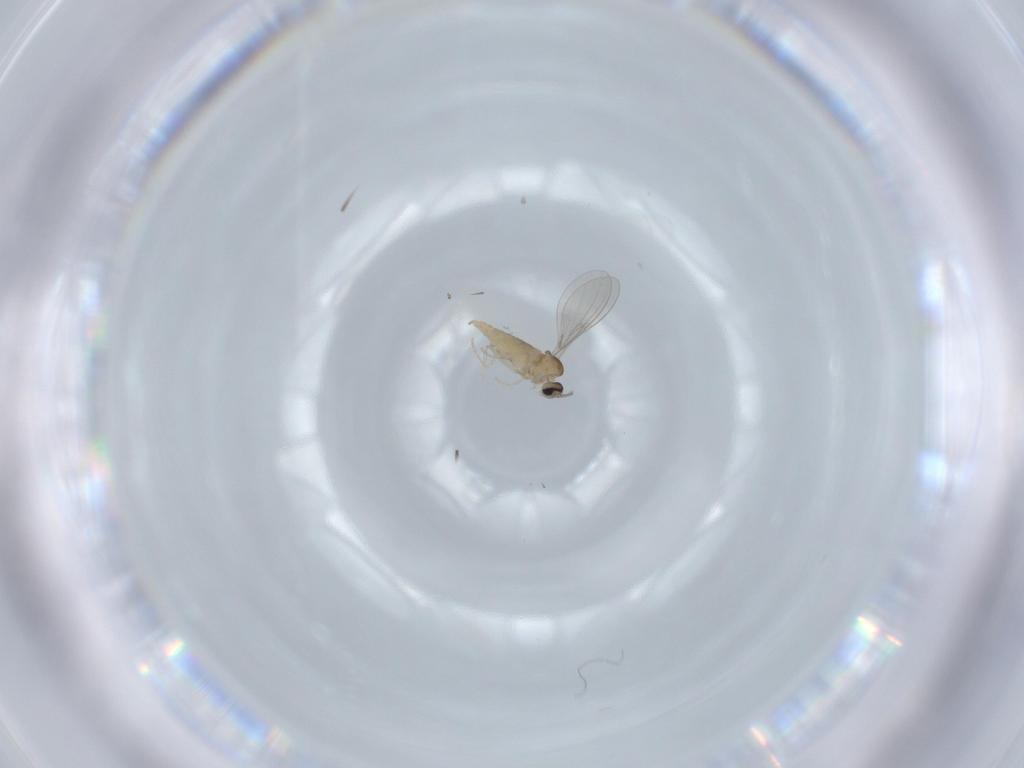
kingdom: Animalia
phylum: Arthropoda
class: Insecta
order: Diptera
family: Cecidomyiidae
